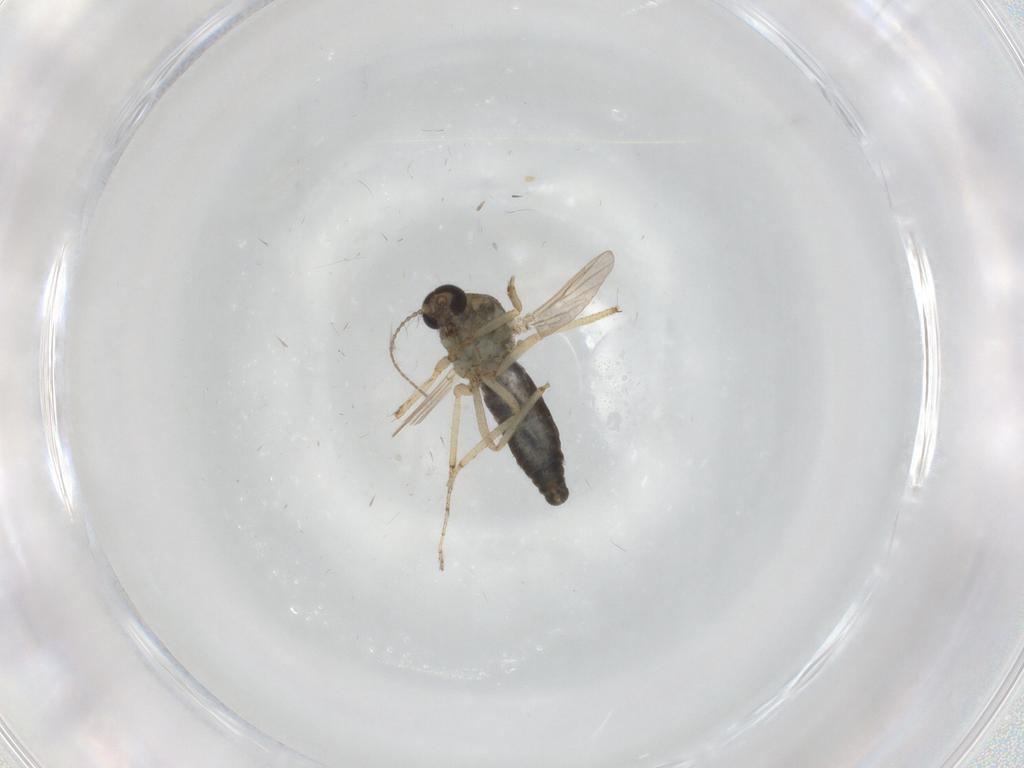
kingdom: Animalia
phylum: Arthropoda
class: Insecta
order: Diptera
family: Ceratopogonidae
